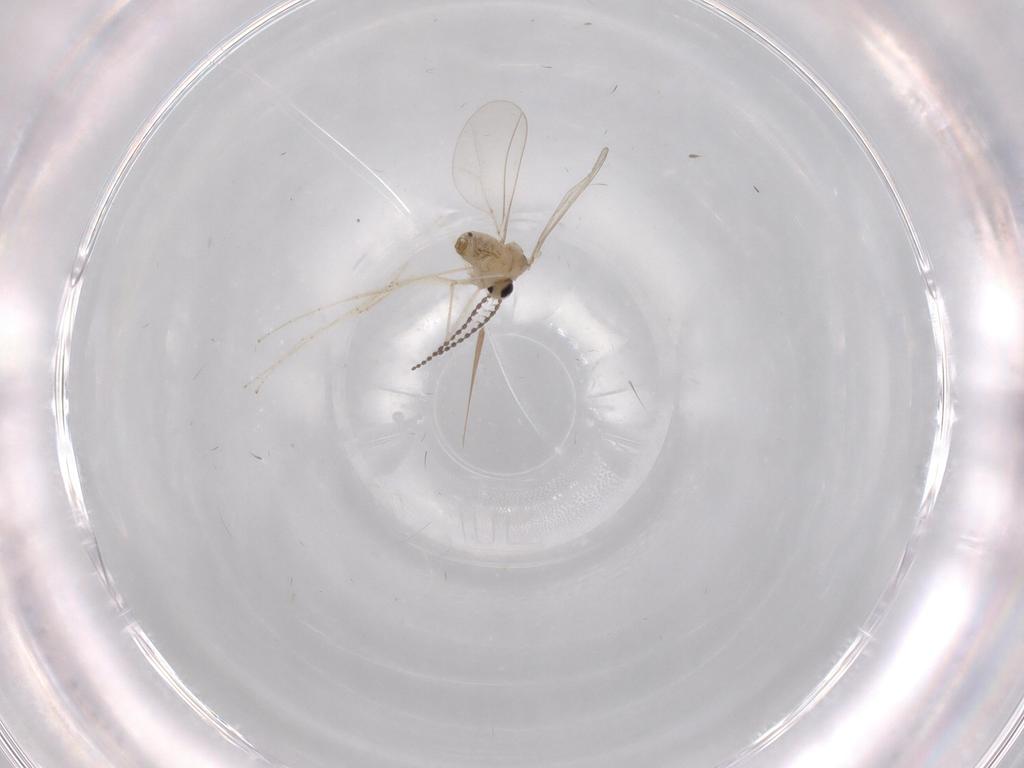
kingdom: Animalia
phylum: Arthropoda
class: Insecta
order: Diptera
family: Cecidomyiidae
